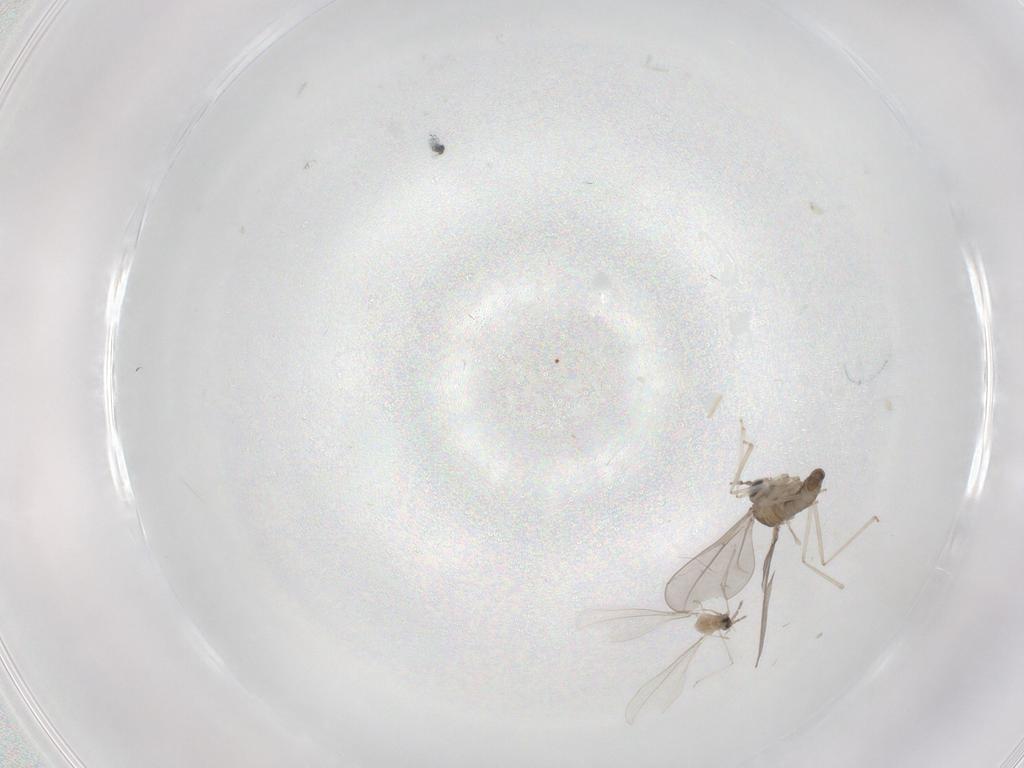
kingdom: Animalia
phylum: Arthropoda
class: Insecta
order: Diptera
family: Cecidomyiidae
